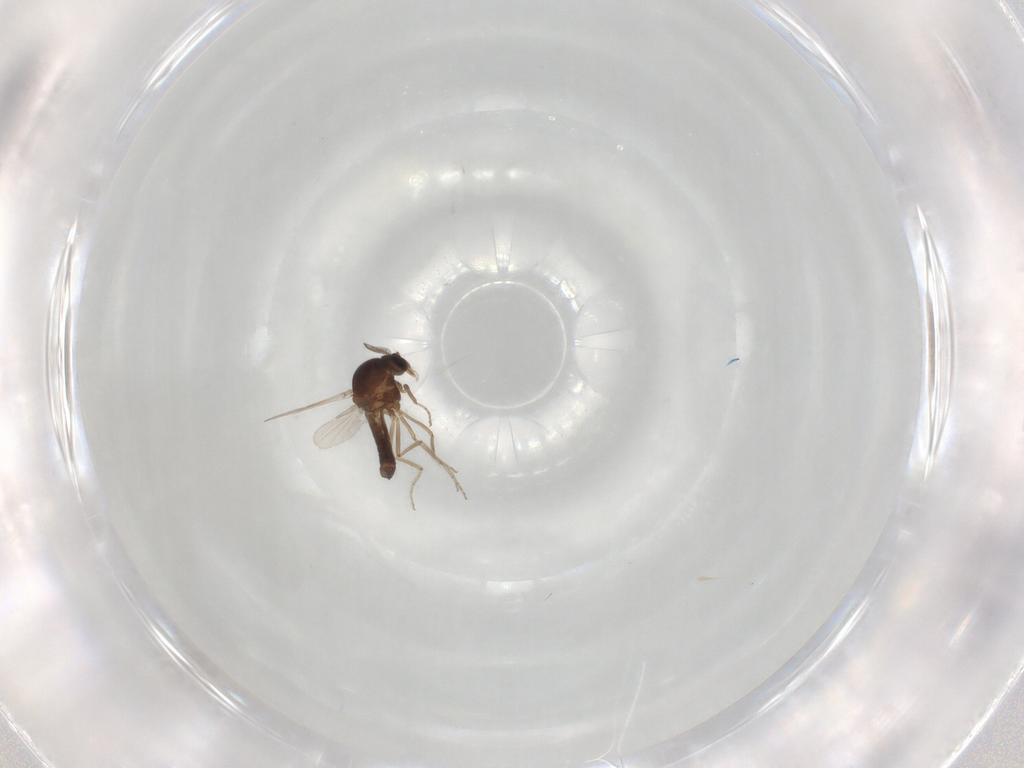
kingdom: Animalia
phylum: Arthropoda
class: Insecta
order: Diptera
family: Ceratopogonidae
